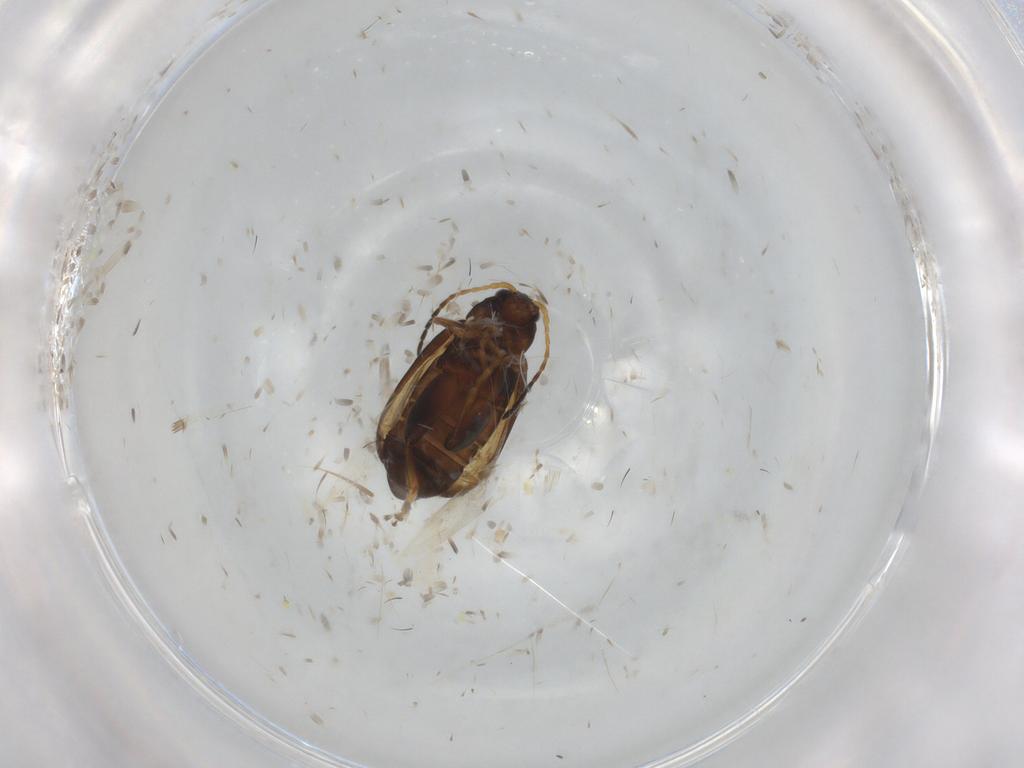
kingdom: Animalia
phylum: Arthropoda
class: Insecta
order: Coleoptera
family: Chrysomelidae
